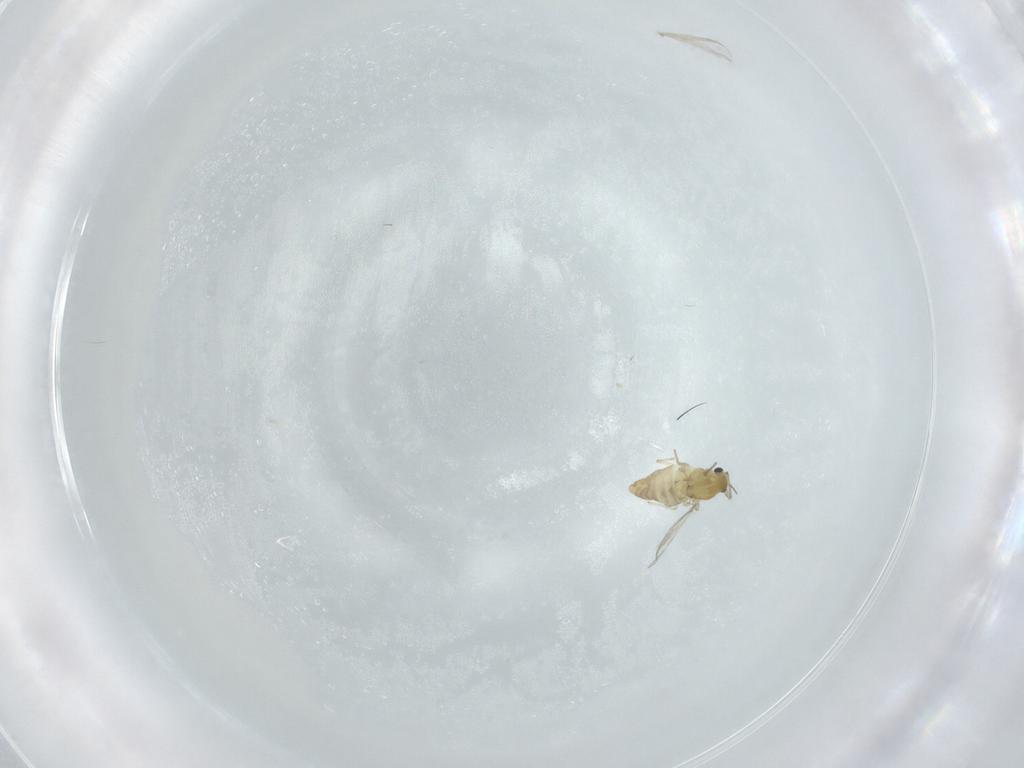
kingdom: Animalia
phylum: Arthropoda
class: Insecta
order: Diptera
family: Chironomidae
